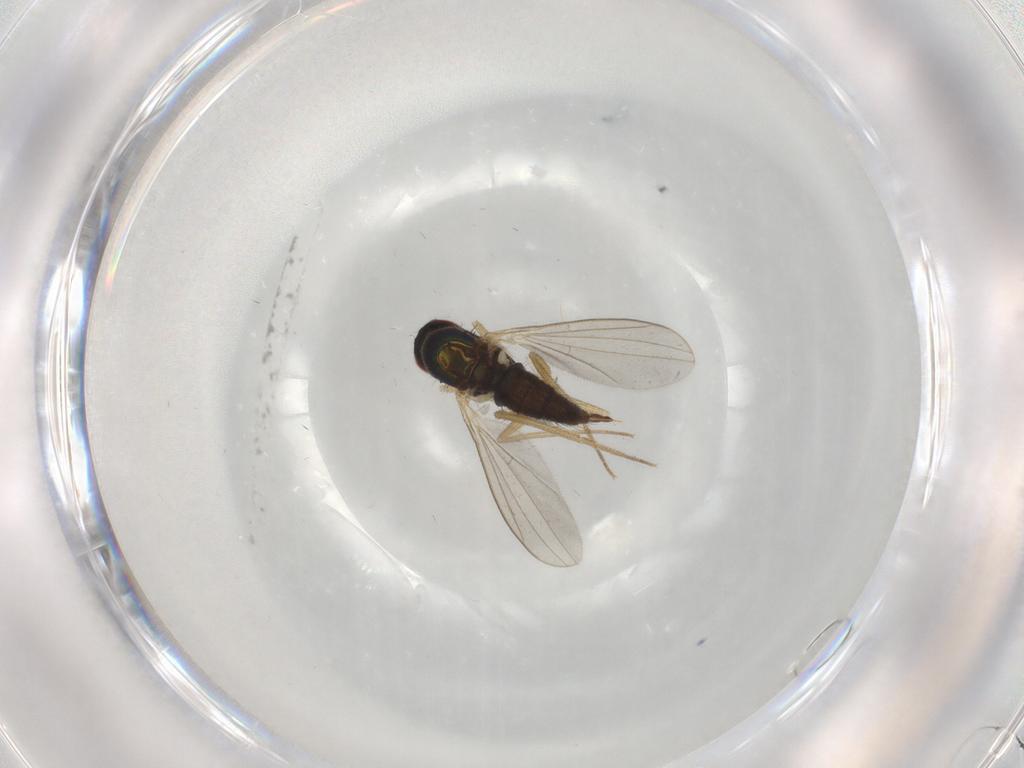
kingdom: Animalia
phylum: Arthropoda
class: Insecta
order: Diptera
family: Dolichopodidae
